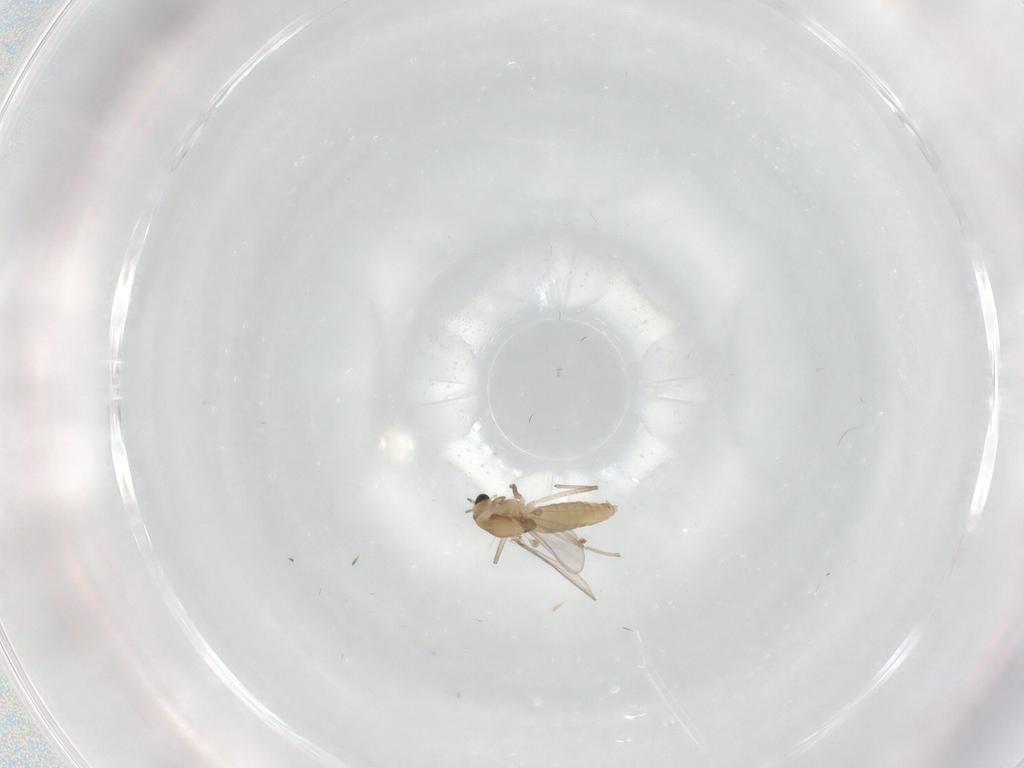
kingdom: Animalia
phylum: Arthropoda
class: Insecta
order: Diptera
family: Chironomidae
